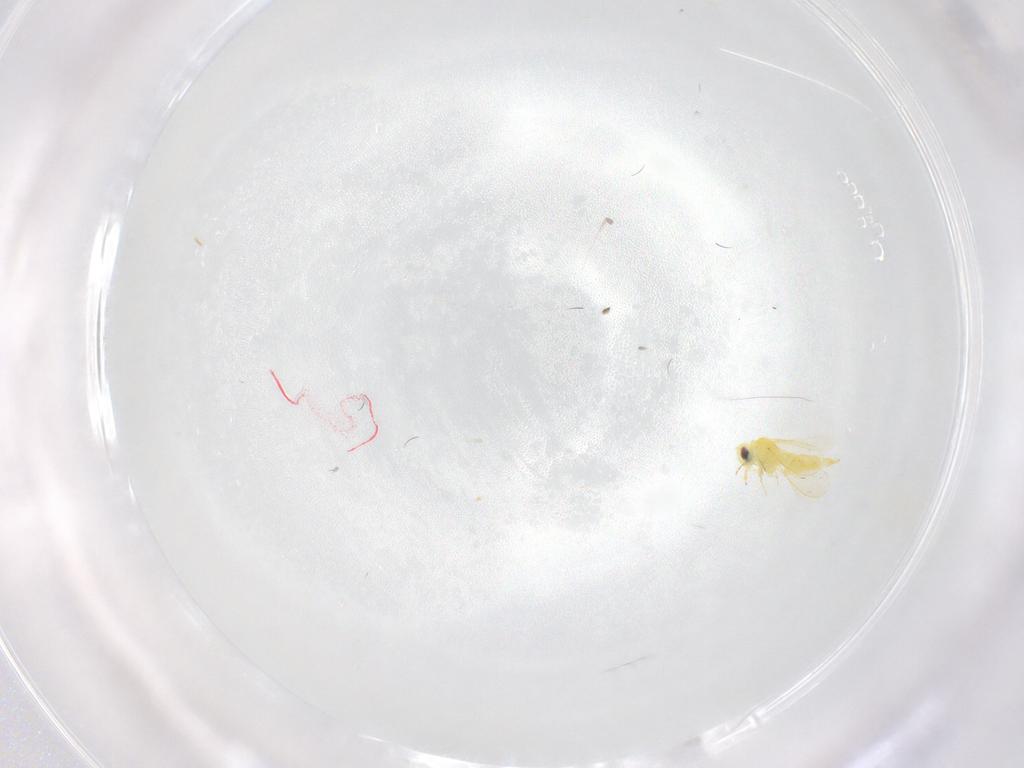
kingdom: Animalia
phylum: Arthropoda
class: Insecta
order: Hemiptera
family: Aleyrodidae
